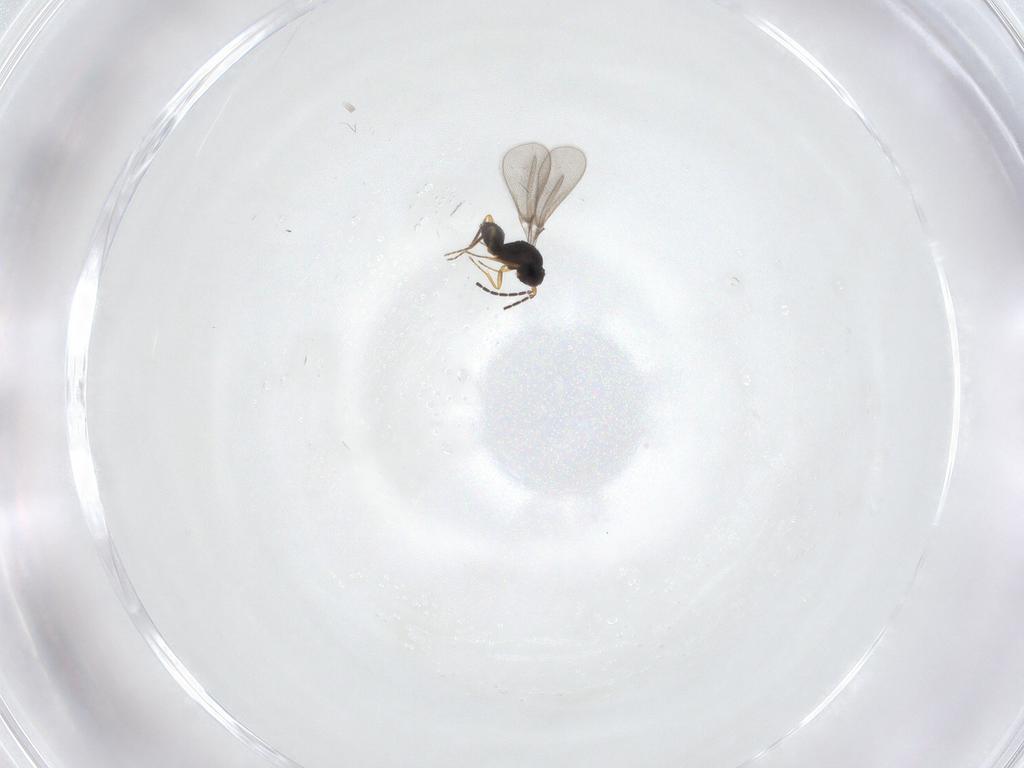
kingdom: Animalia
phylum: Arthropoda
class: Insecta
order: Hymenoptera
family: Mymaridae
